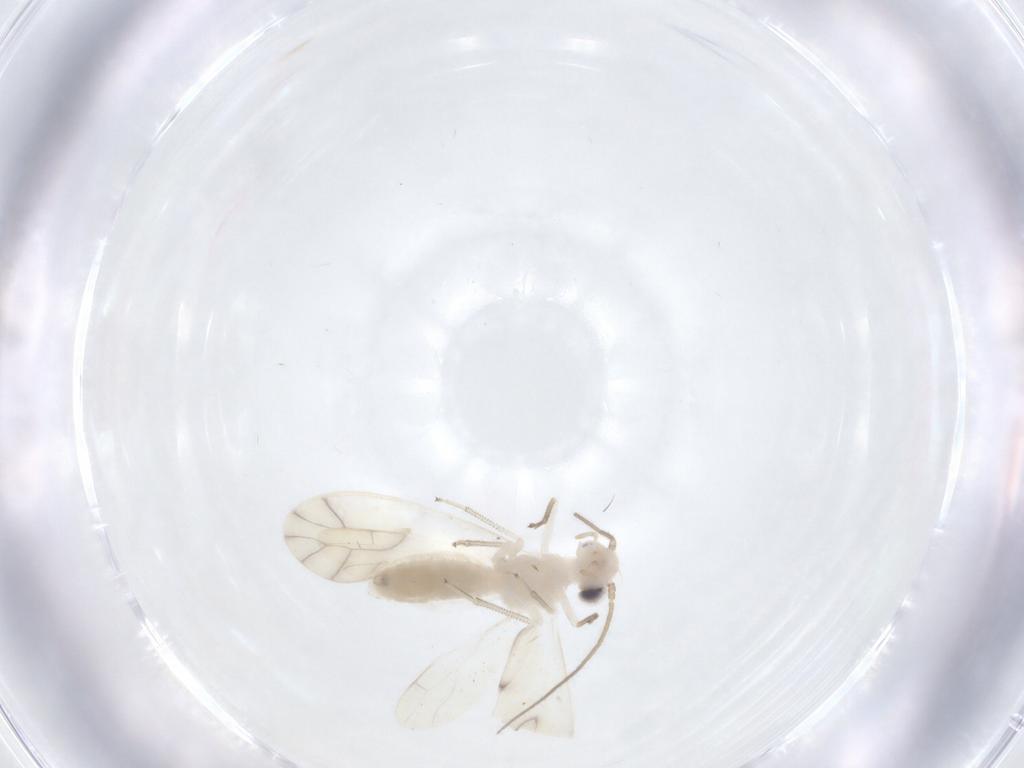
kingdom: Animalia
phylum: Arthropoda
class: Insecta
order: Psocodea
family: Caeciliusidae
